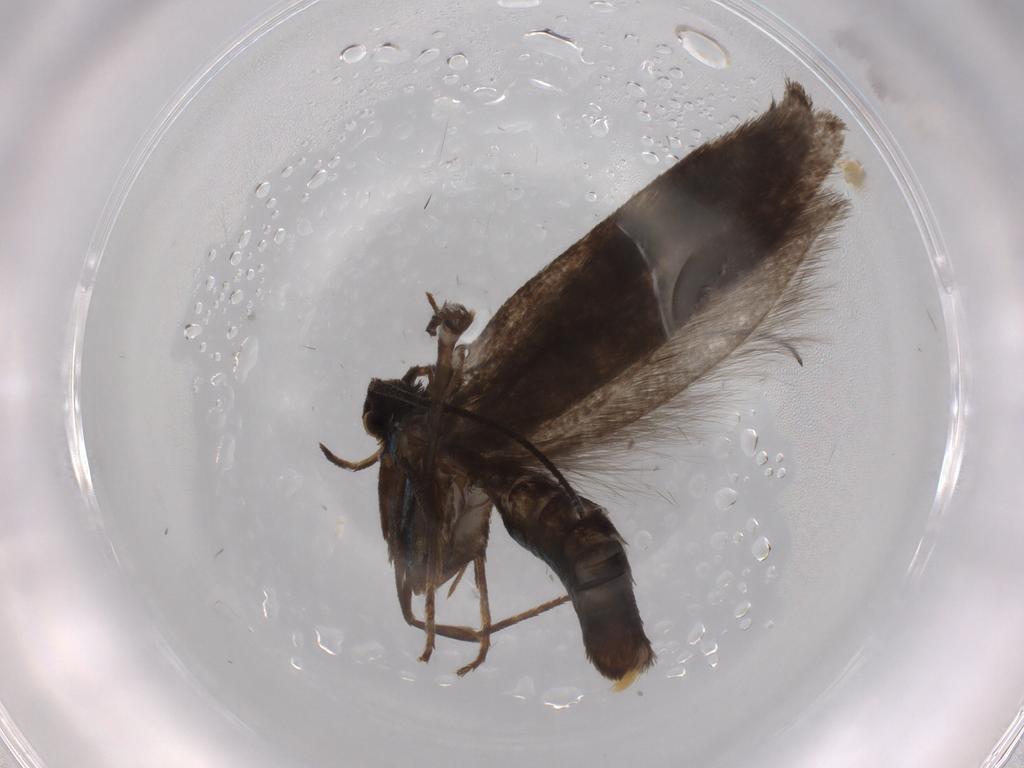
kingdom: Animalia
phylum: Arthropoda
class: Insecta
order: Lepidoptera
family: Argyresthiidae
